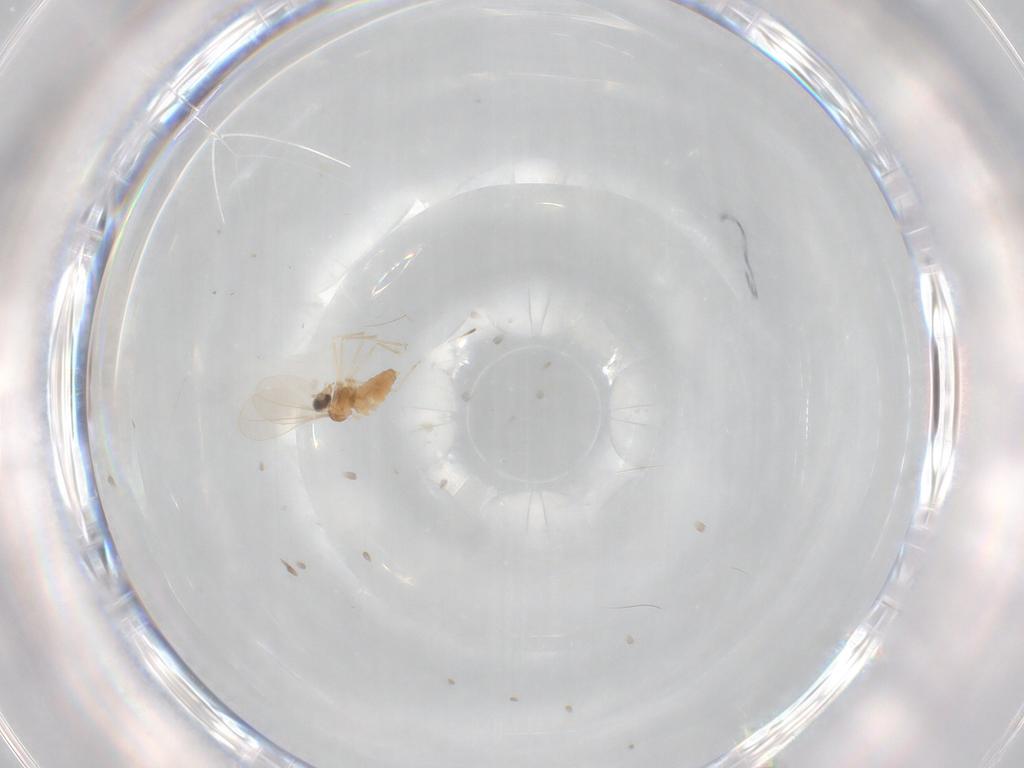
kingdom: Animalia
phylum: Arthropoda
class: Insecta
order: Diptera
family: Cecidomyiidae
